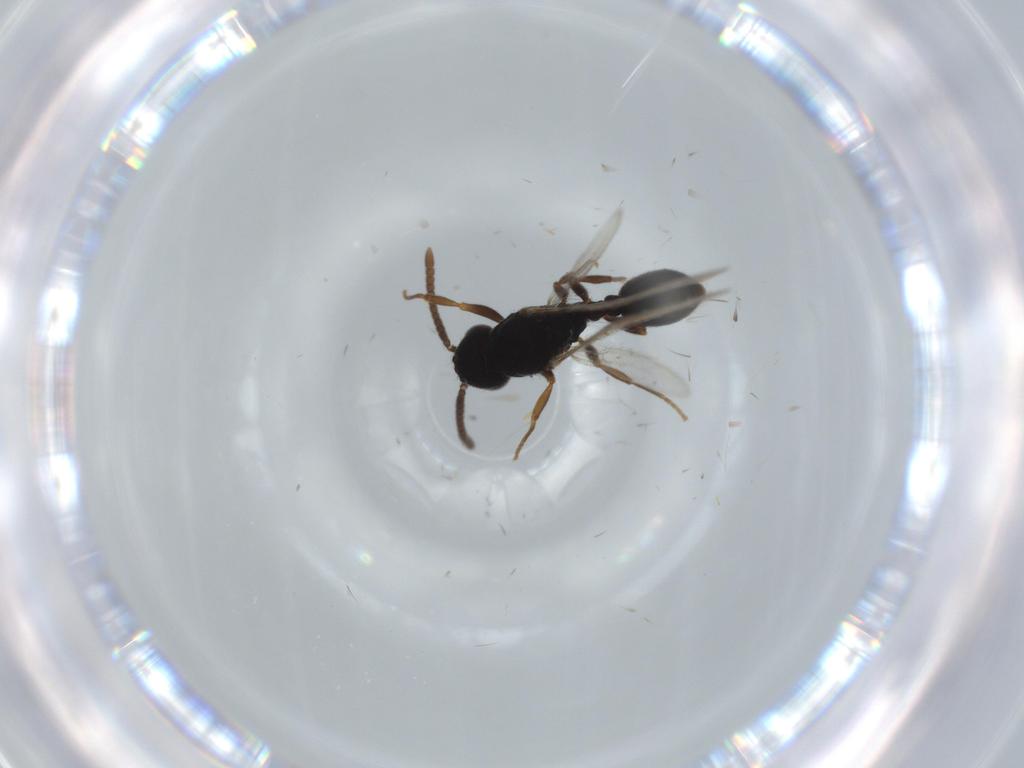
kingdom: Animalia
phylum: Arthropoda
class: Insecta
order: Hymenoptera
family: Formicidae
